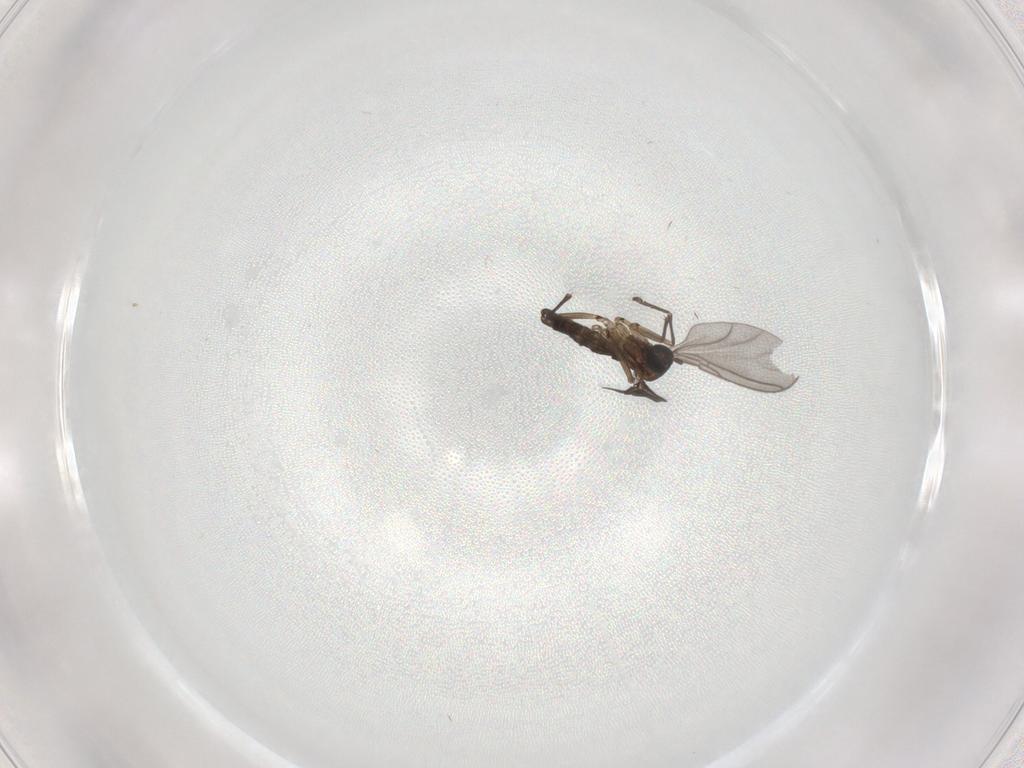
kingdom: Animalia
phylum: Arthropoda
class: Insecta
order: Diptera
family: Sciaridae
